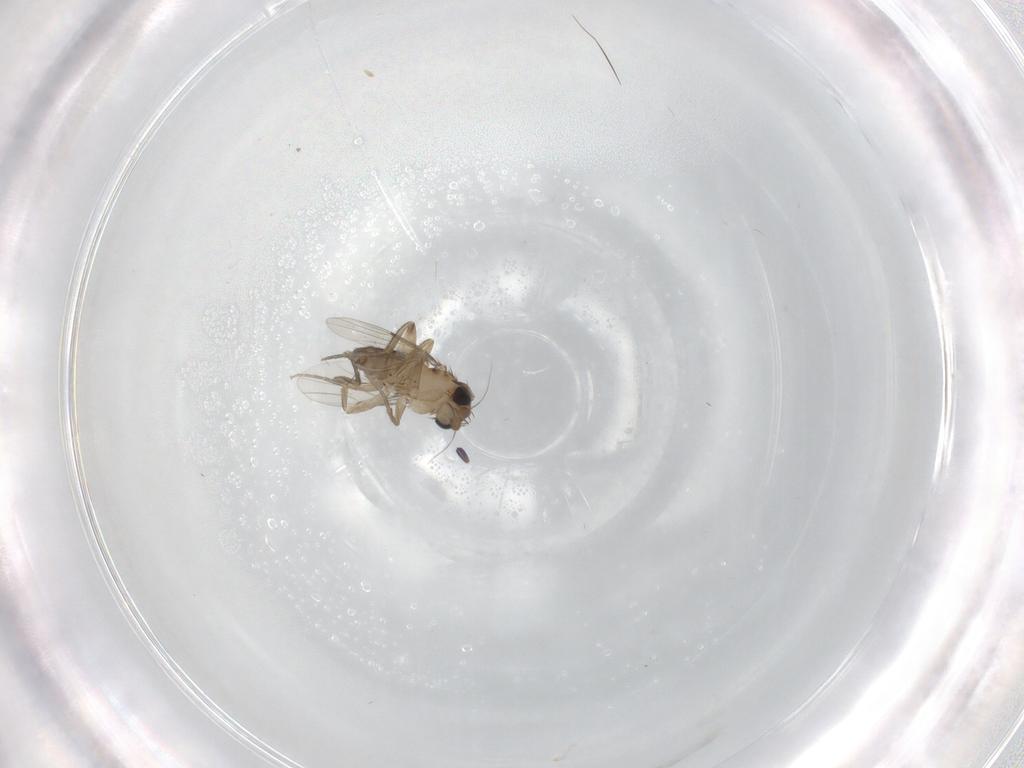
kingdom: Animalia
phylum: Arthropoda
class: Insecta
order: Diptera
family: Phoridae
